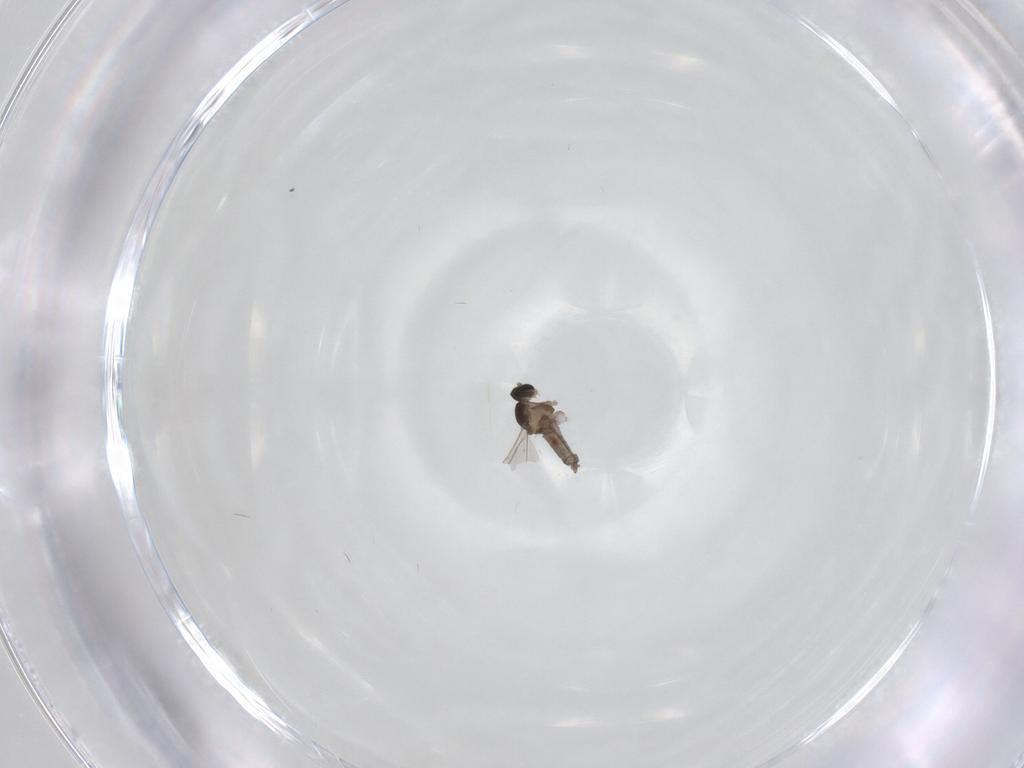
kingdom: Animalia
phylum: Arthropoda
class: Insecta
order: Diptera
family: Cecidomyiidae
